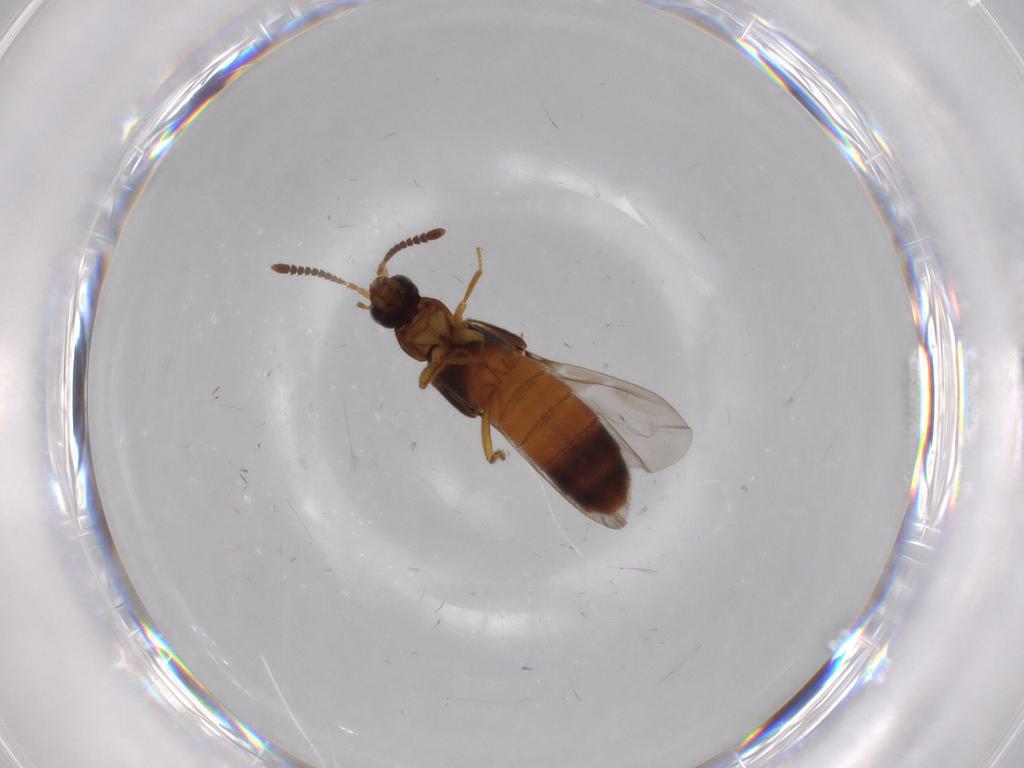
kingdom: Animalia
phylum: Arthropoda
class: Insecta
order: Coleoptera
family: Staphylinidae
